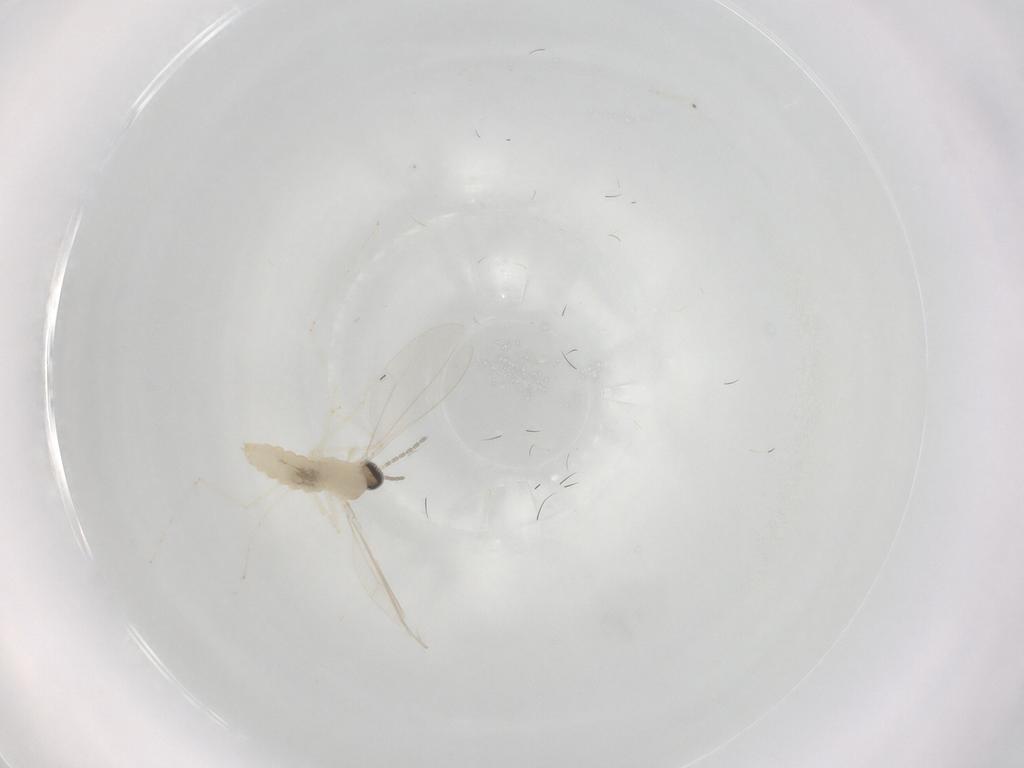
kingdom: Animalia
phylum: Arthropoda
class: Insecta
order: Diptera
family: Cecidomyiidae
